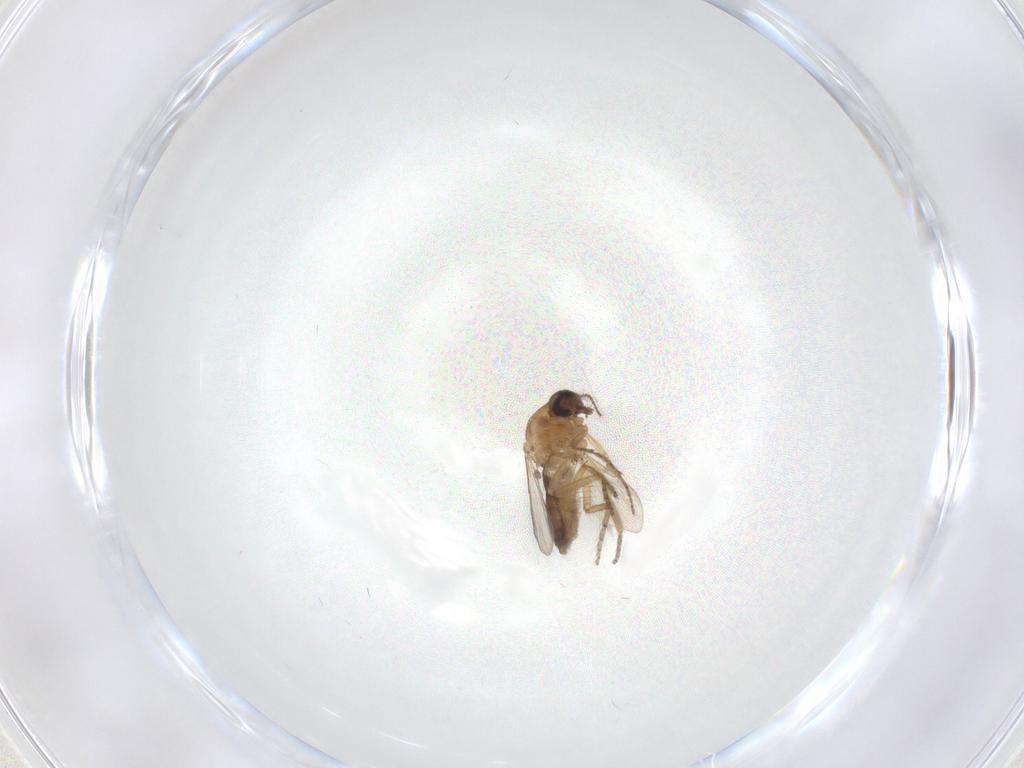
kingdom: Animalia
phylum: Arthropoda
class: Insecta
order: Diptera
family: Ceratopogonidae
